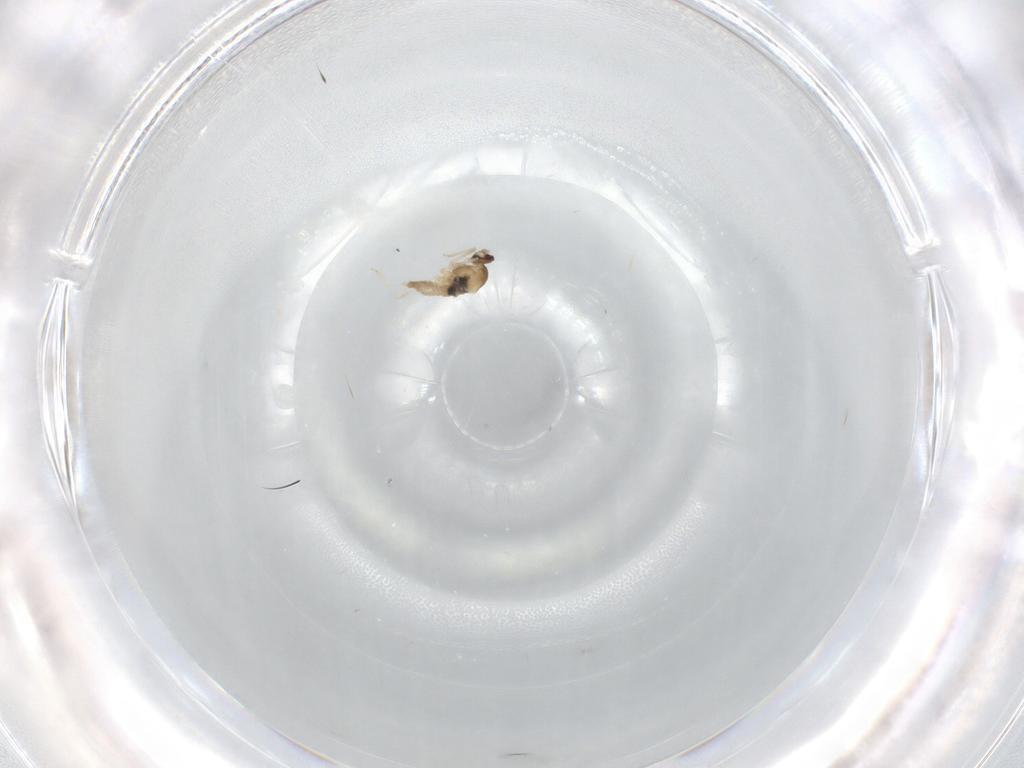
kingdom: Animalia
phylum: Arthropoda
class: Insecta
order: Diptera
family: Cecidomyiidae
